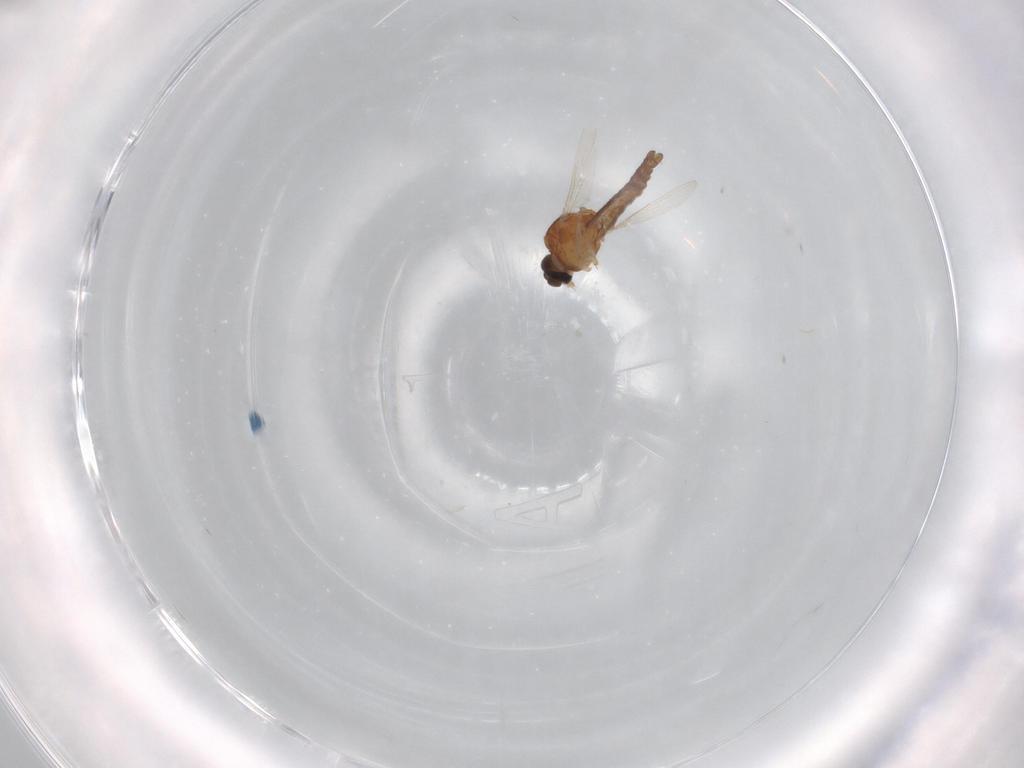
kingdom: Animalia
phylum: Arthropoda
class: Insecta
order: Diptera
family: Ceratopogonidae
